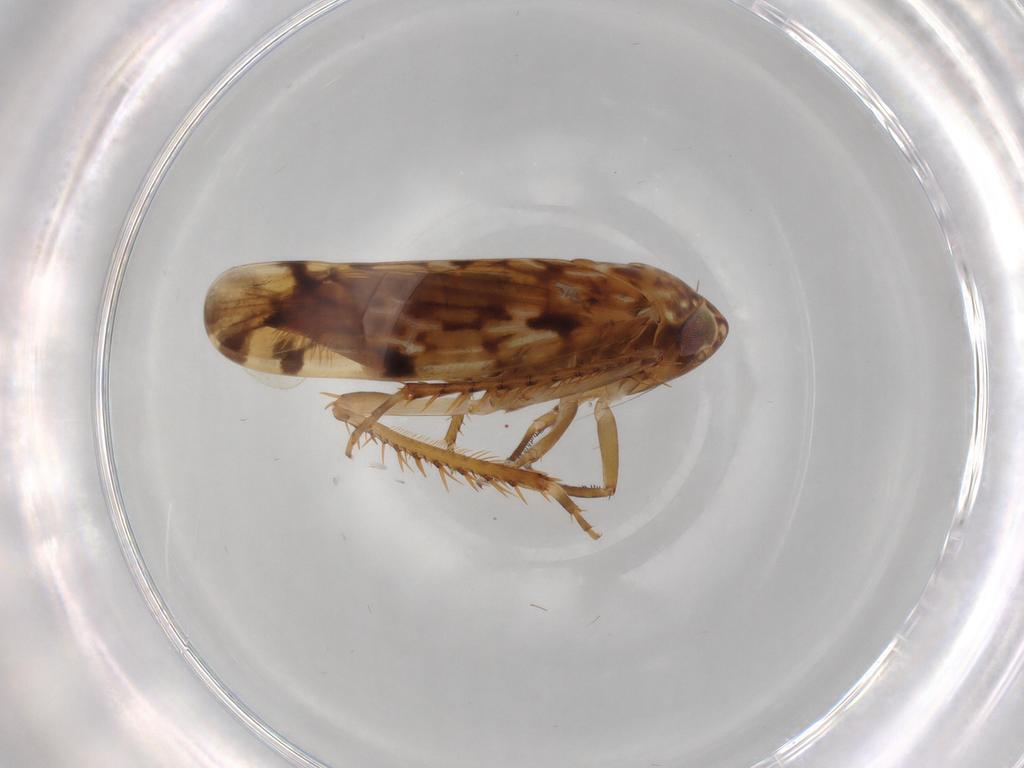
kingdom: Animalia
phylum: Arthropoda
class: Insecta
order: Hemiptera
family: Cicadellidae
